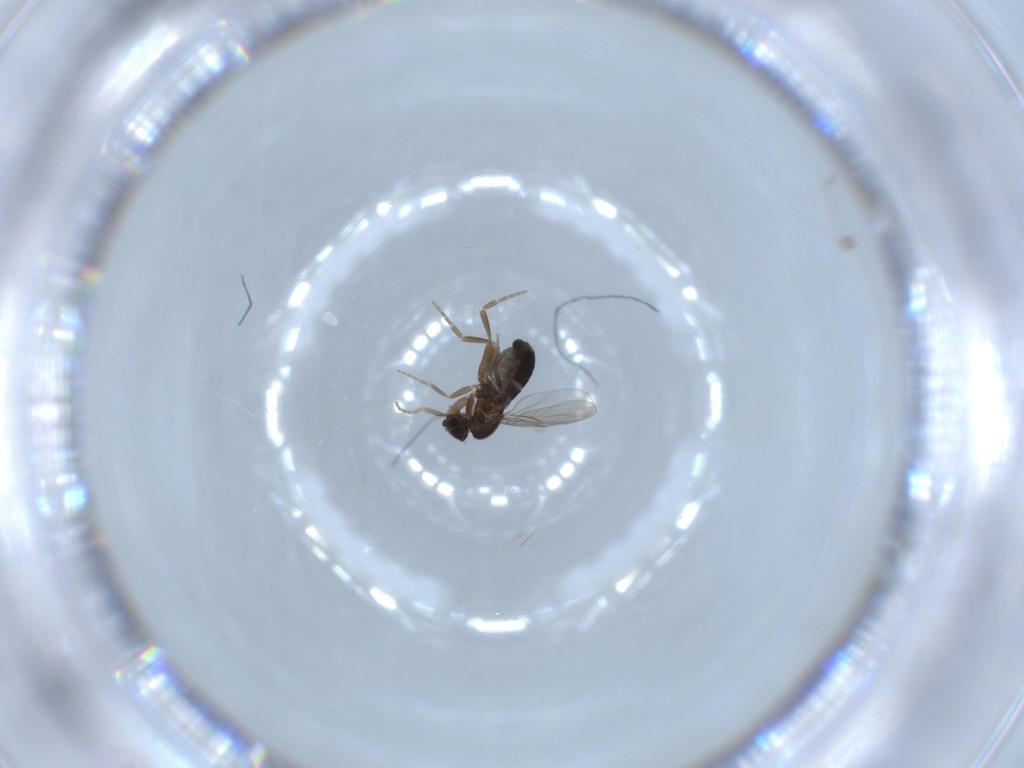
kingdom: Animalia
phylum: Arthropoda
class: Insecta
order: Diptera
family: Phoridae
